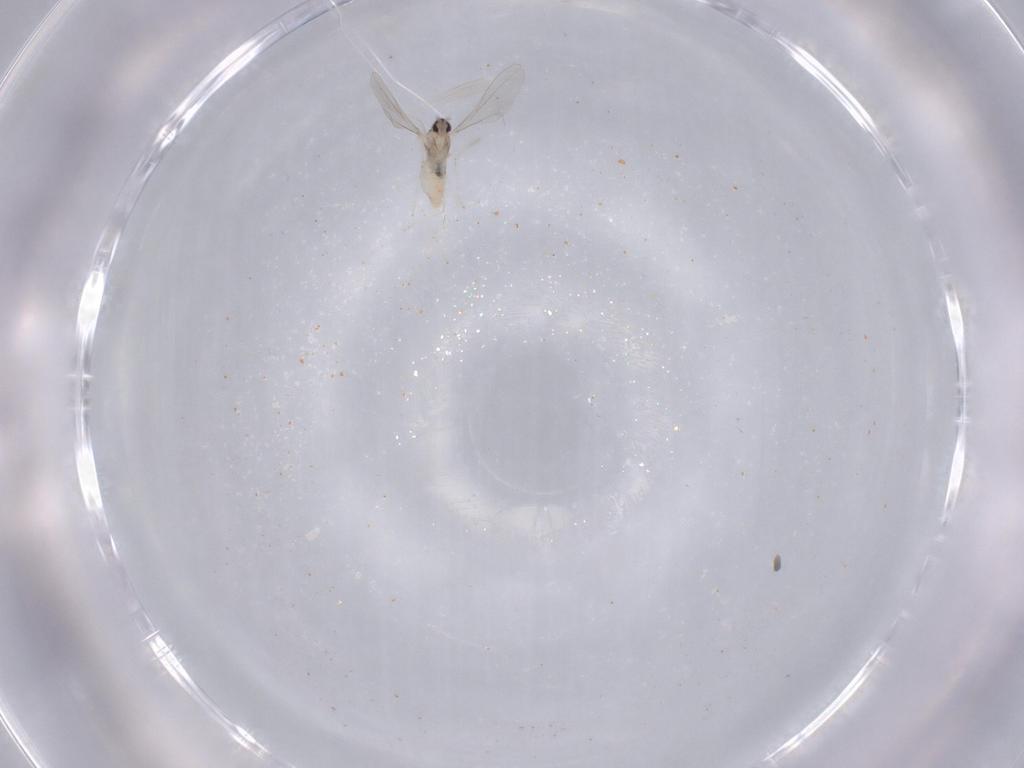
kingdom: Animalia
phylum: Arthropoda
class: Insecta
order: Diptera
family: Cecidomyiidae
